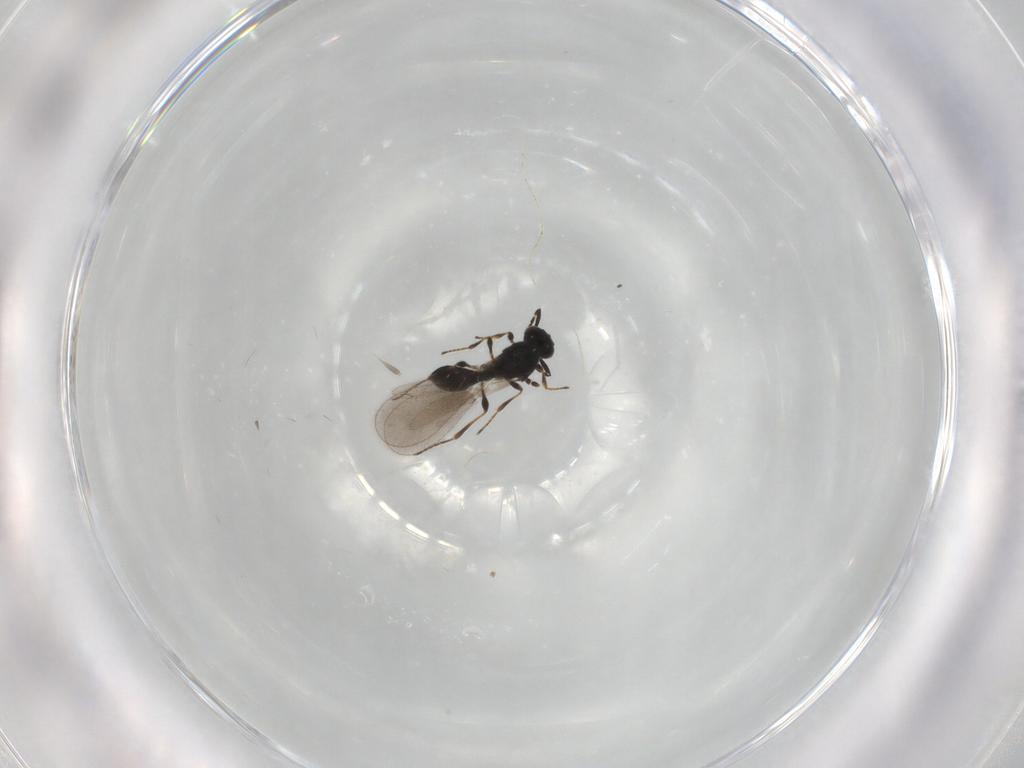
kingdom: Animalia
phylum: Arthropoda
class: Insecta
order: Hymenoptera
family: Platygastridae
